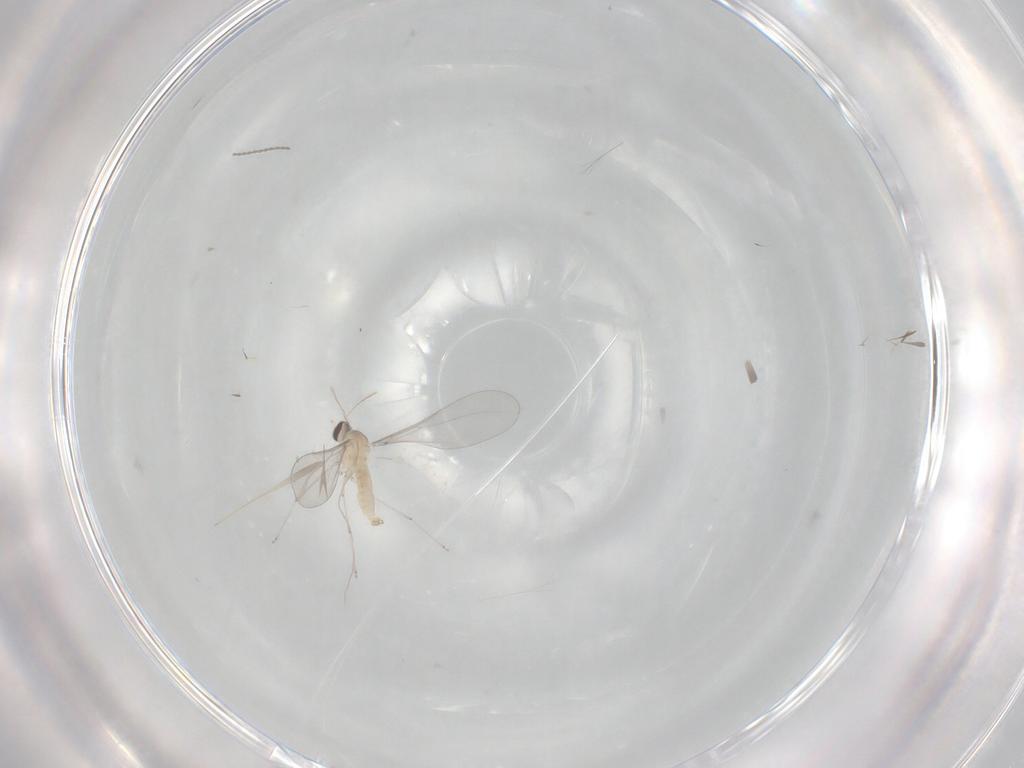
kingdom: Animalia
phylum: Arthropoda
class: Insecta
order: Diptera
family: Cecidomyiidae
